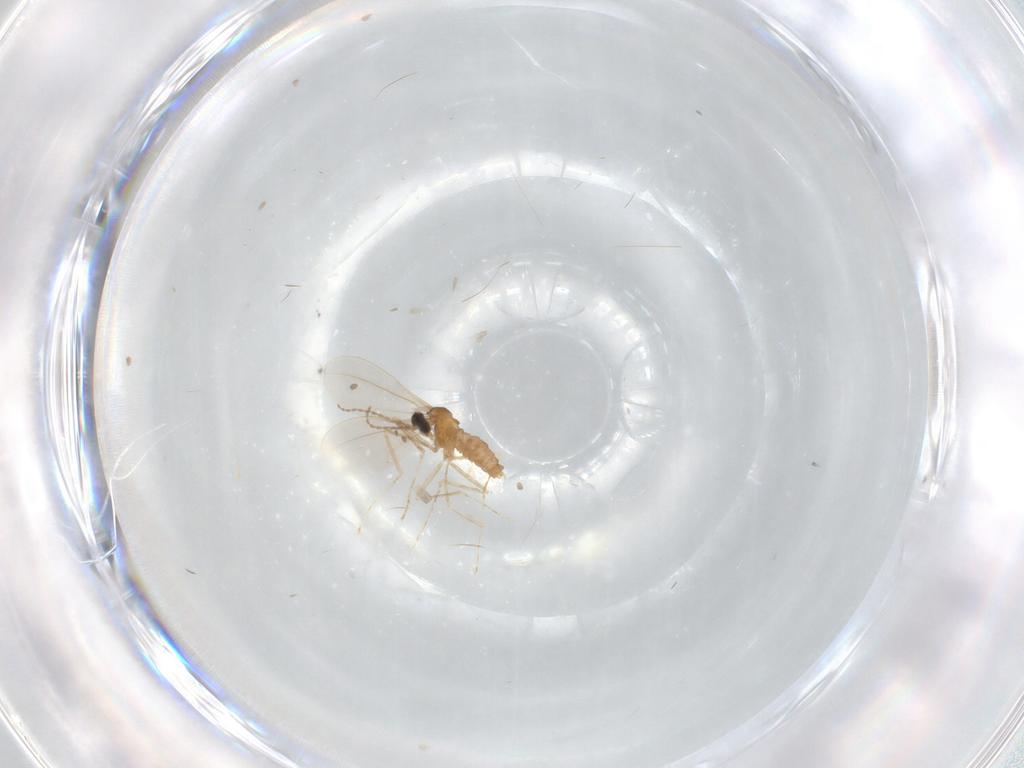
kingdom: Animalia
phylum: Arthropoda
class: Insecta
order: Diptera
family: Cecidomyiidae
